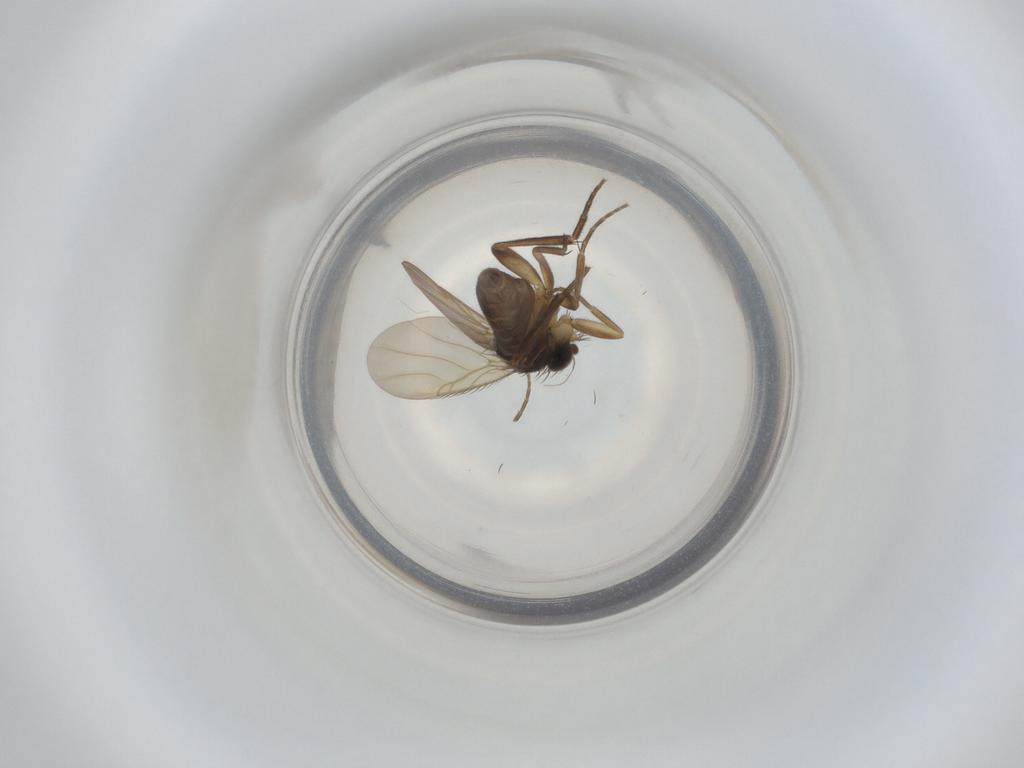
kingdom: Animalia
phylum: Arthropoda
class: Insecta
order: Diptera
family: Phoridae
